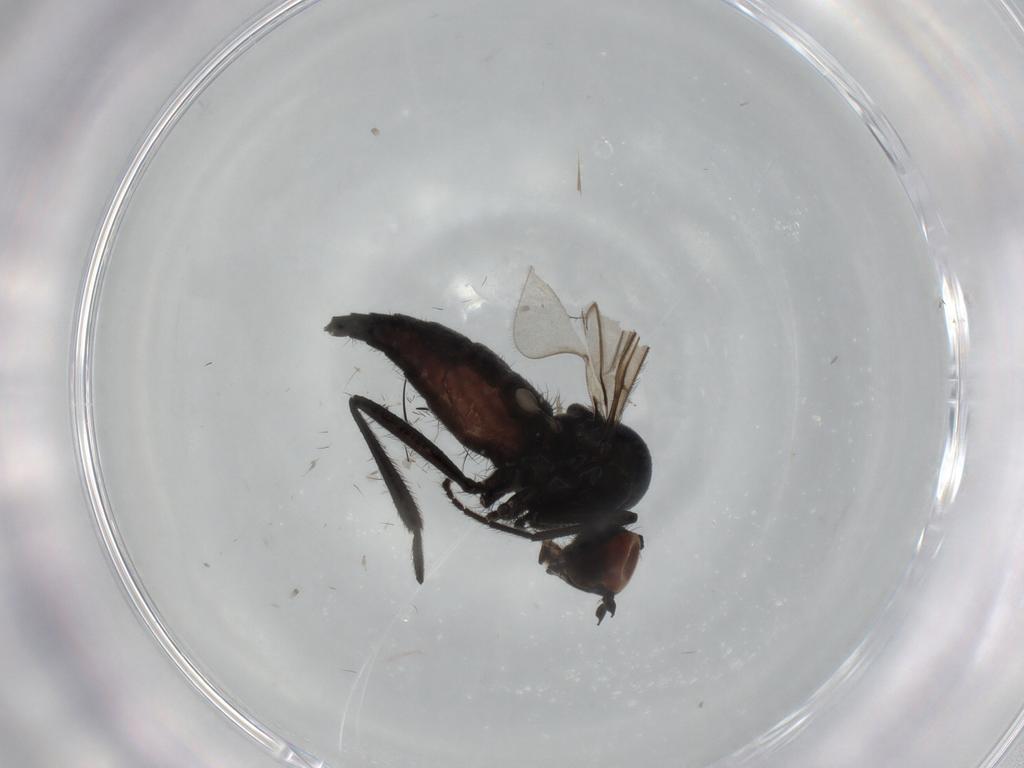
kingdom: Animalia
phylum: Arthropoda
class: Insecta
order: Diptera
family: Hybotidae
